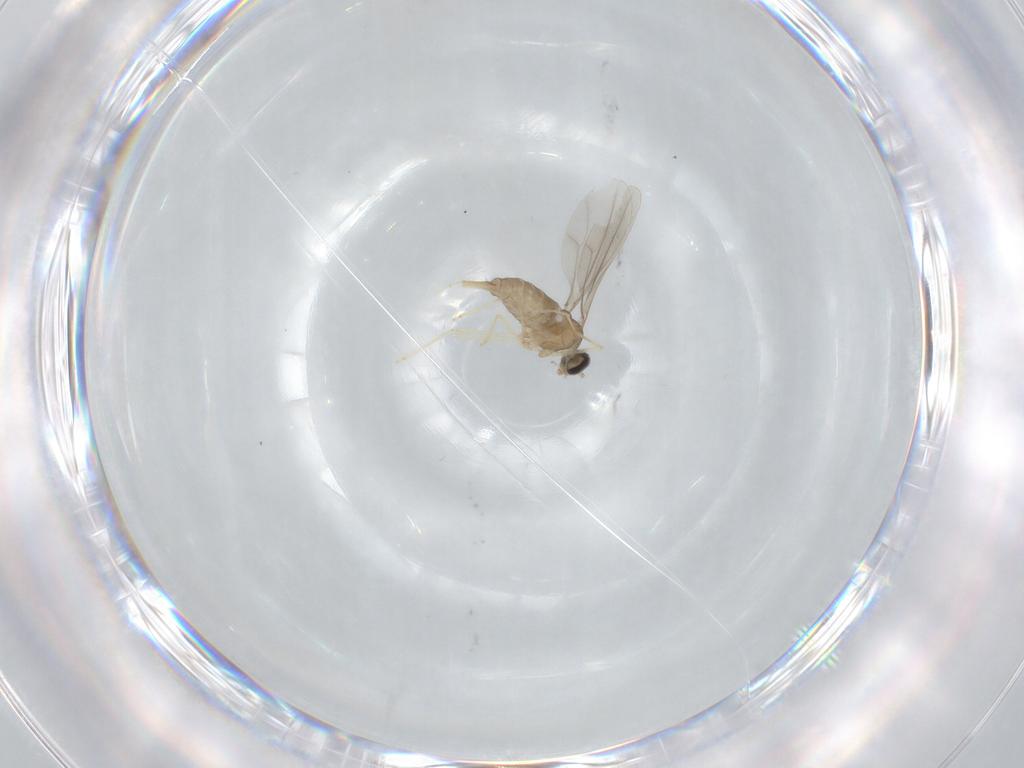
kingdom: Animalia
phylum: Arthropoda
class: Insecta
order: Diptera
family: Cecidomyiidae
